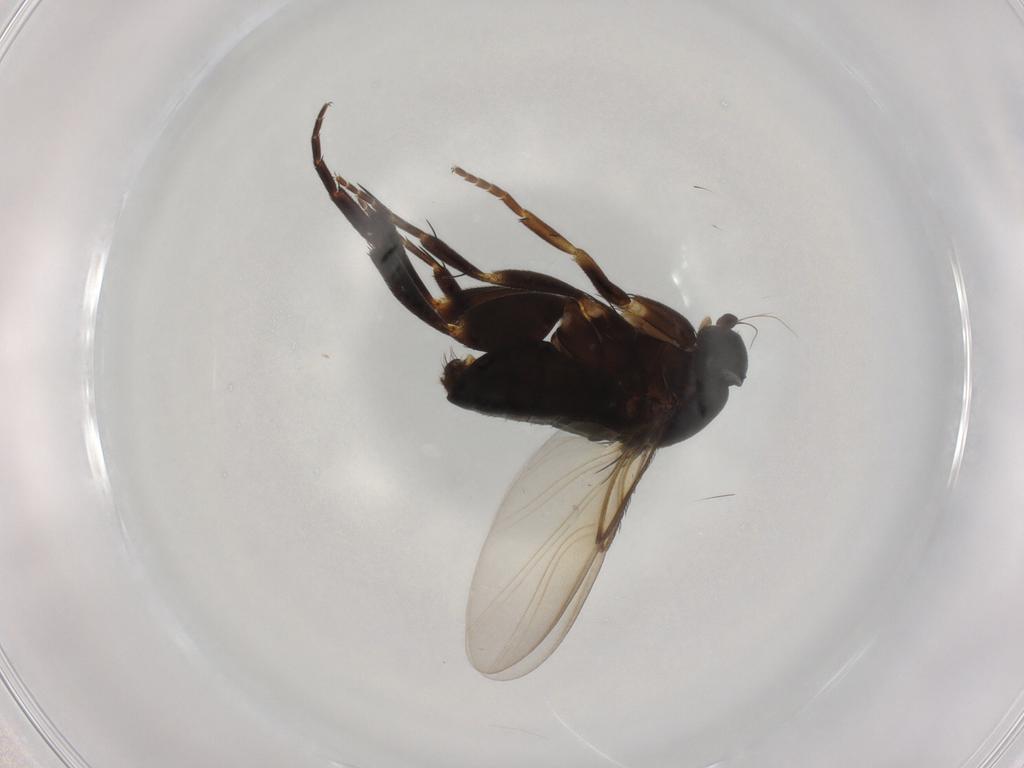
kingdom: Animalia
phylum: Arthropoda
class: Insecta
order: Diptera
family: Phoridae
